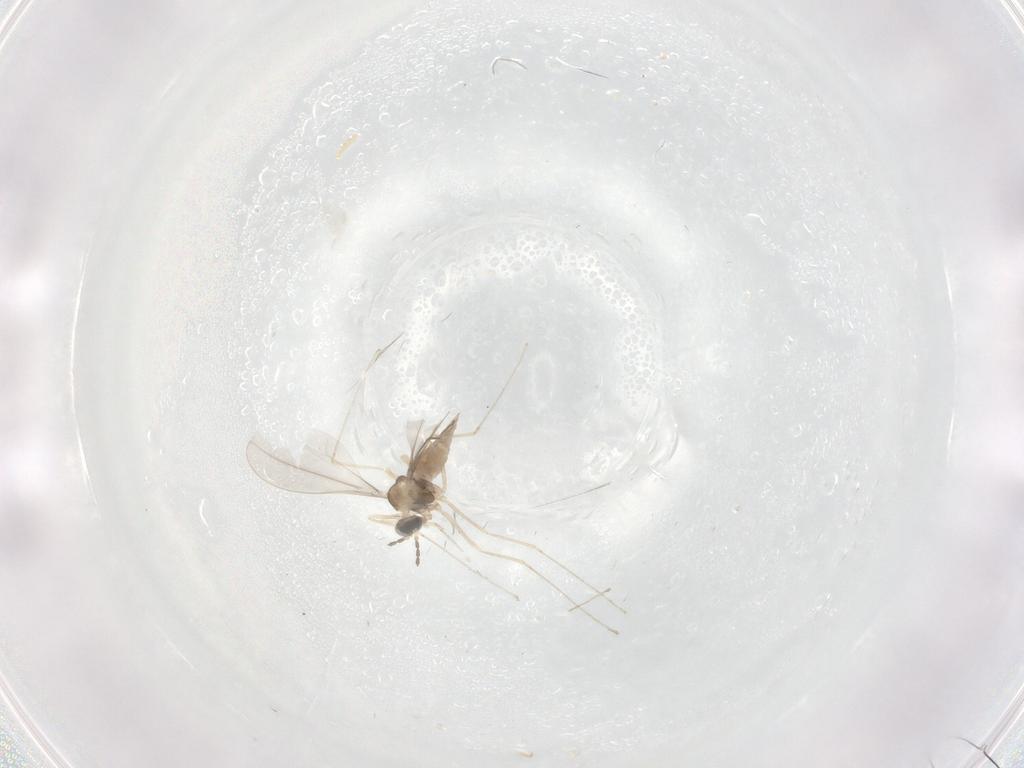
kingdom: Animalia
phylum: Arthropoda
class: Insecta
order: Diptera
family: Cecidomyiidae
